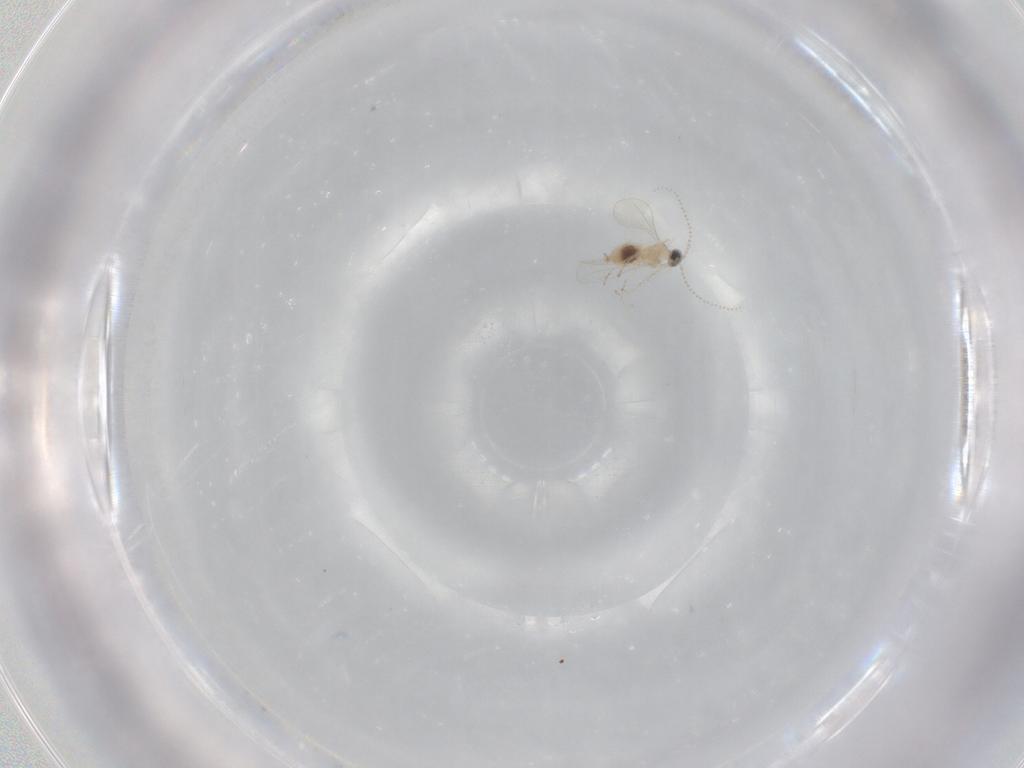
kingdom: Animalia
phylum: Arthropoda
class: Insecta
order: Diptera
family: Cecidomyiidae
